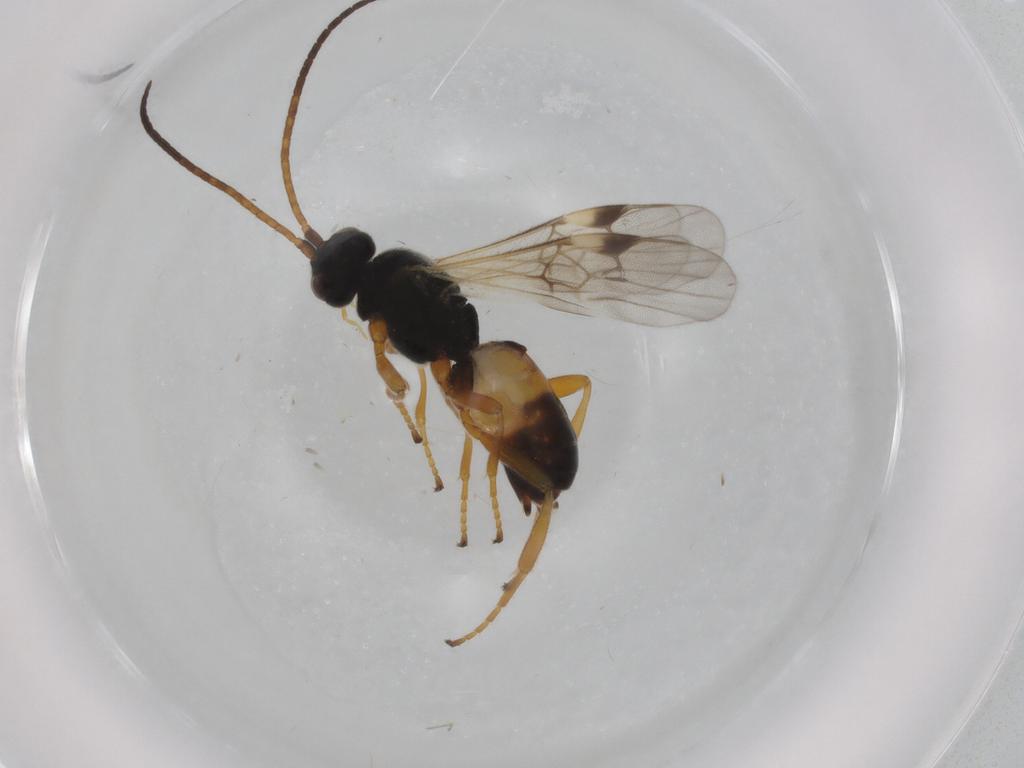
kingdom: Animalia
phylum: Arthropoda
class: Insecta
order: Hymenoptera
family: Braconidae
